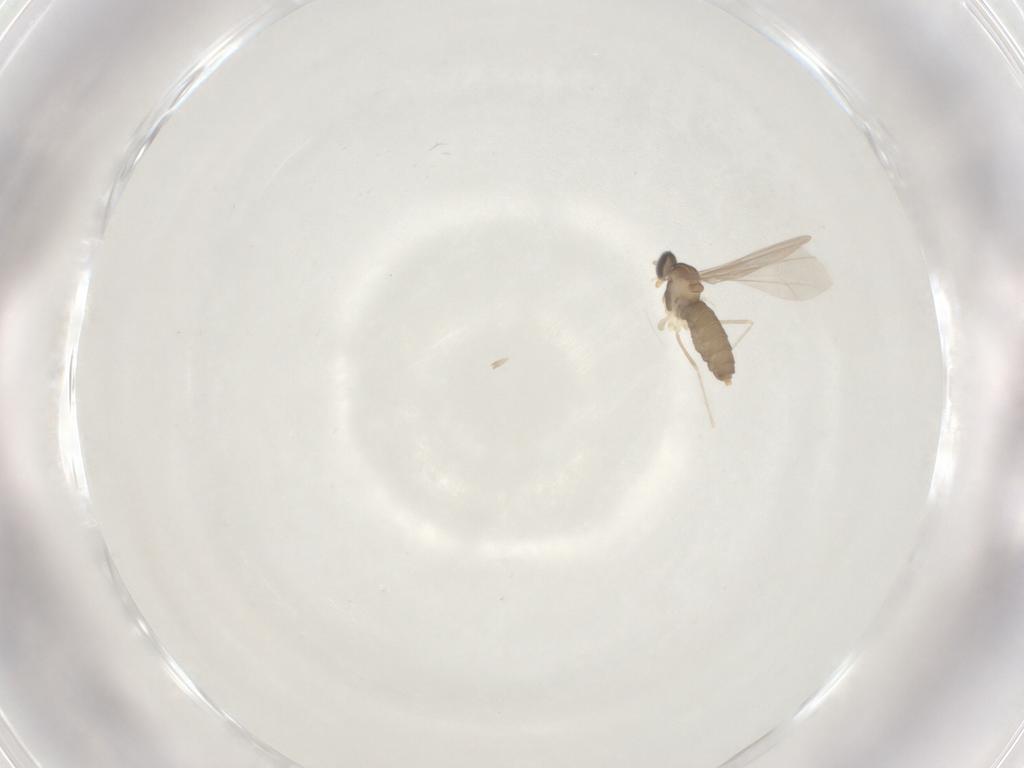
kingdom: Animalia
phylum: Arthropoda
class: Insecta
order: Diptera
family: Cecidomyiidae
